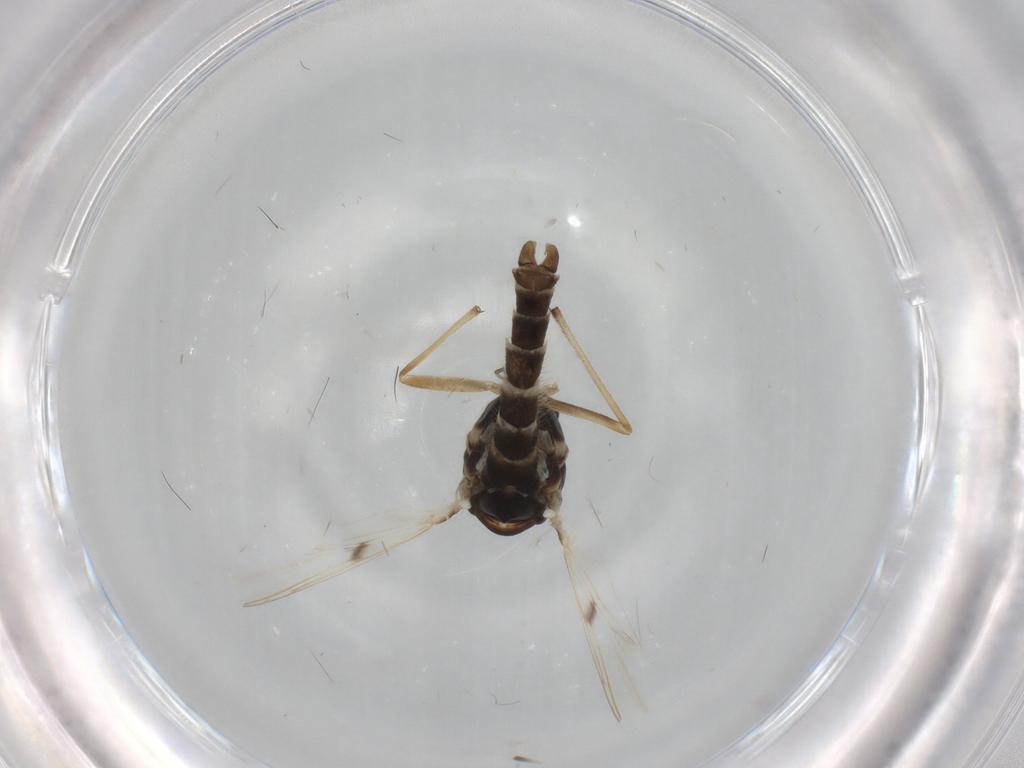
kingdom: Animalia
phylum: Arthropoda
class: Insecta
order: Diptera
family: Chironomidae
